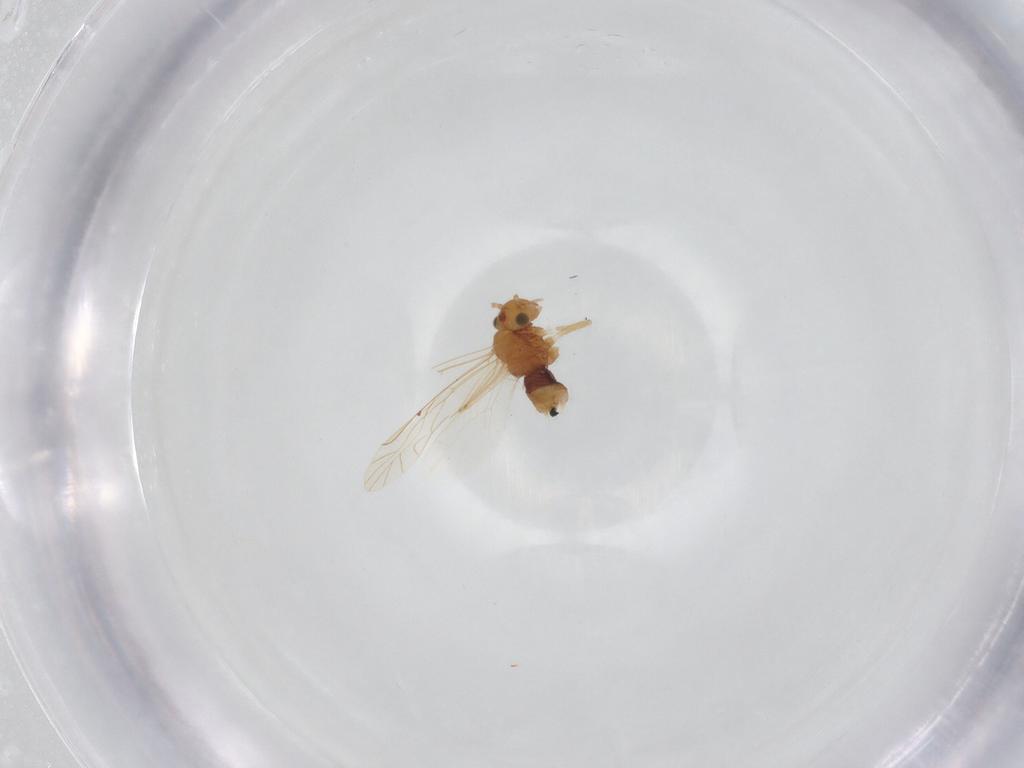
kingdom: Animalia
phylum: Arthropoda
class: Insecta
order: Psocodea
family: Lachesillidae
